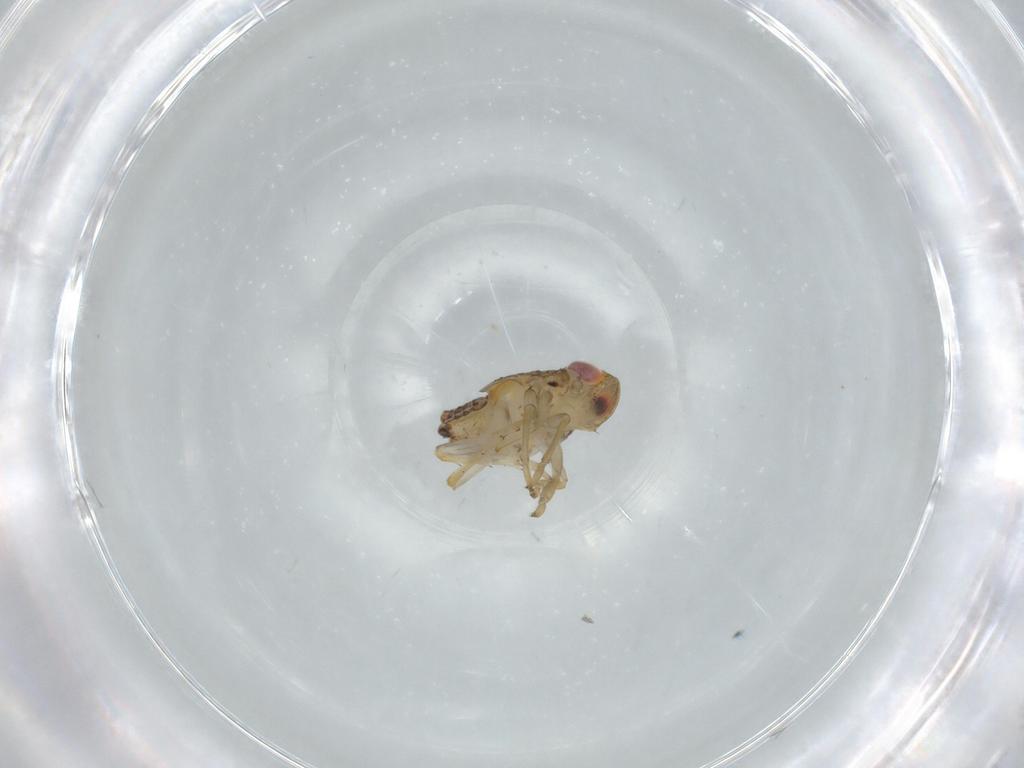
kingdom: Animalia
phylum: Arthropoda
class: Insecta
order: Hemiptera
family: Issidae
